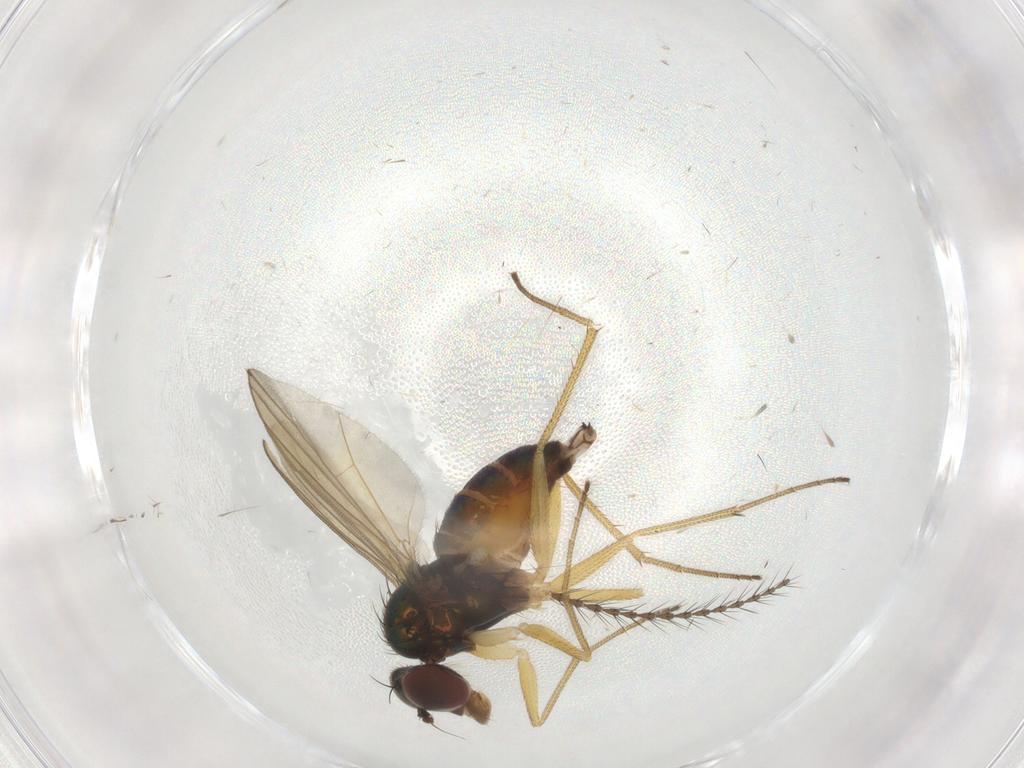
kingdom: Animalia
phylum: Arthropoda
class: Insecta
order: Diptera
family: Dolichopodidae
